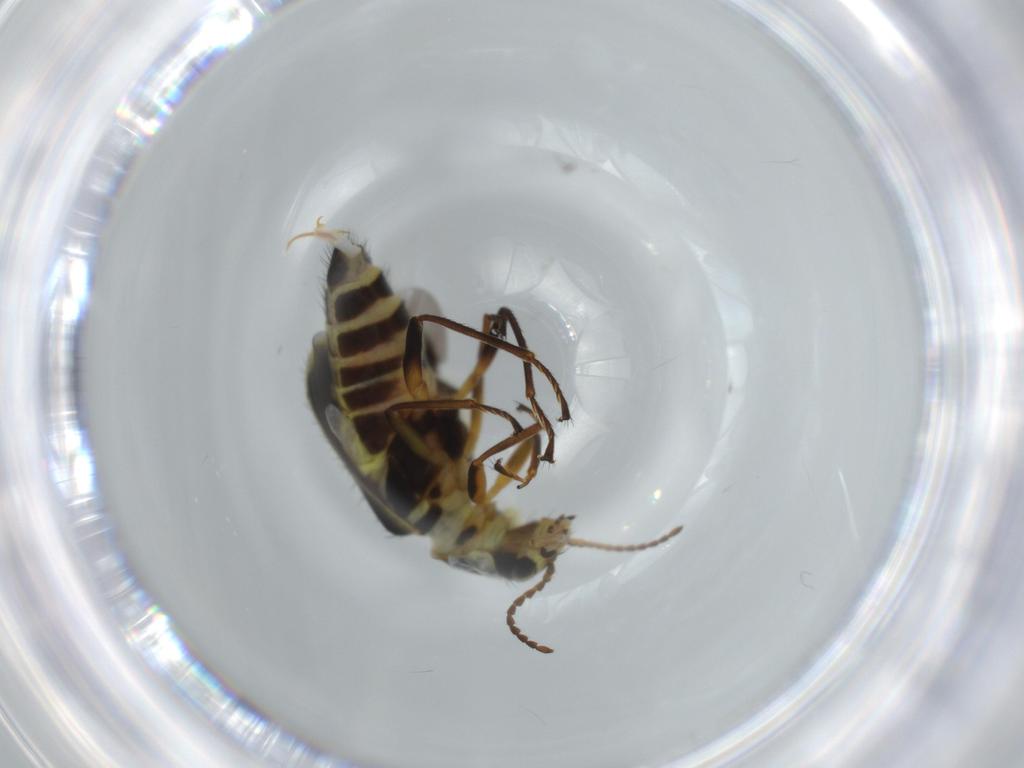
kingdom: Animalia
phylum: Arthropoda
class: Insecta
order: Coleoptera
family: Melyridae
